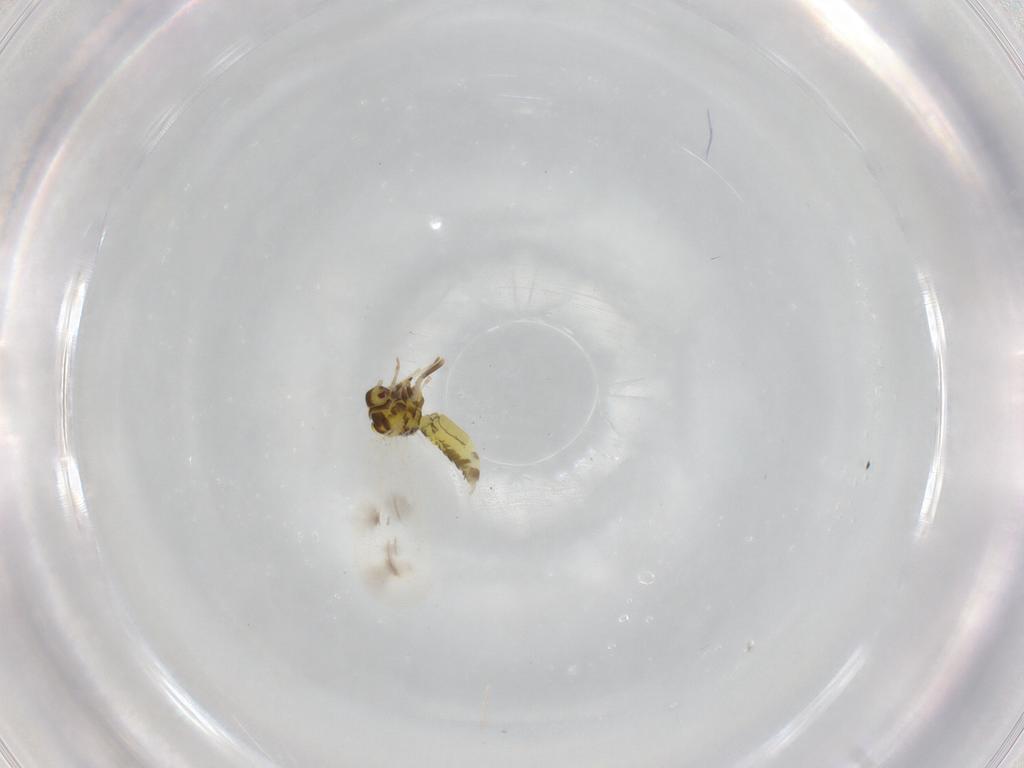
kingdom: Animalia
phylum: Arthropoda
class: Insecta
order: Hemiptera
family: Aphididae
